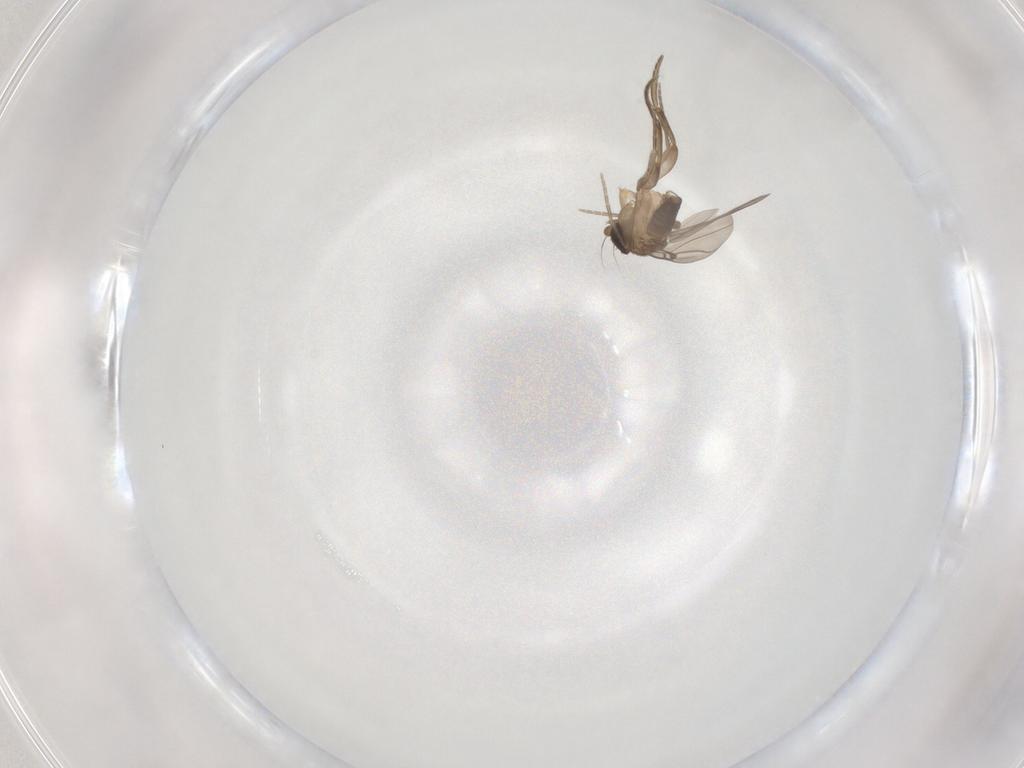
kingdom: Animalia
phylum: Arthropoda
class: Insecta
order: Diptera
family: Phoridae
